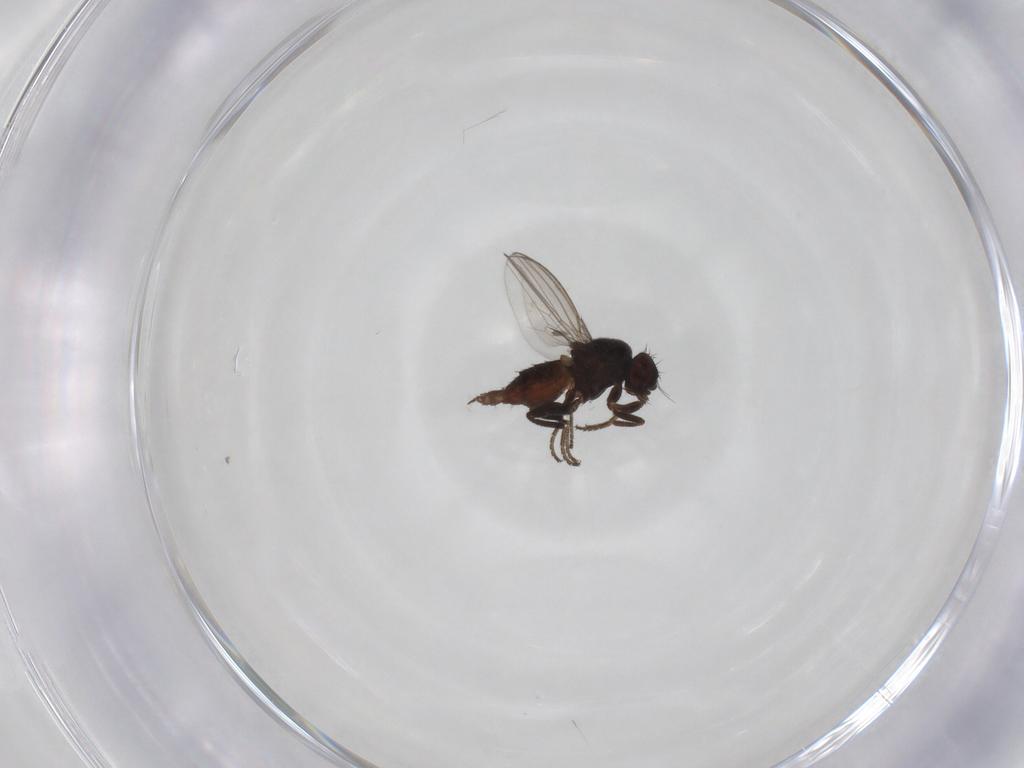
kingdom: Animalia
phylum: Arthropoda
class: Insecta
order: Diptera
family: Milichiidae
